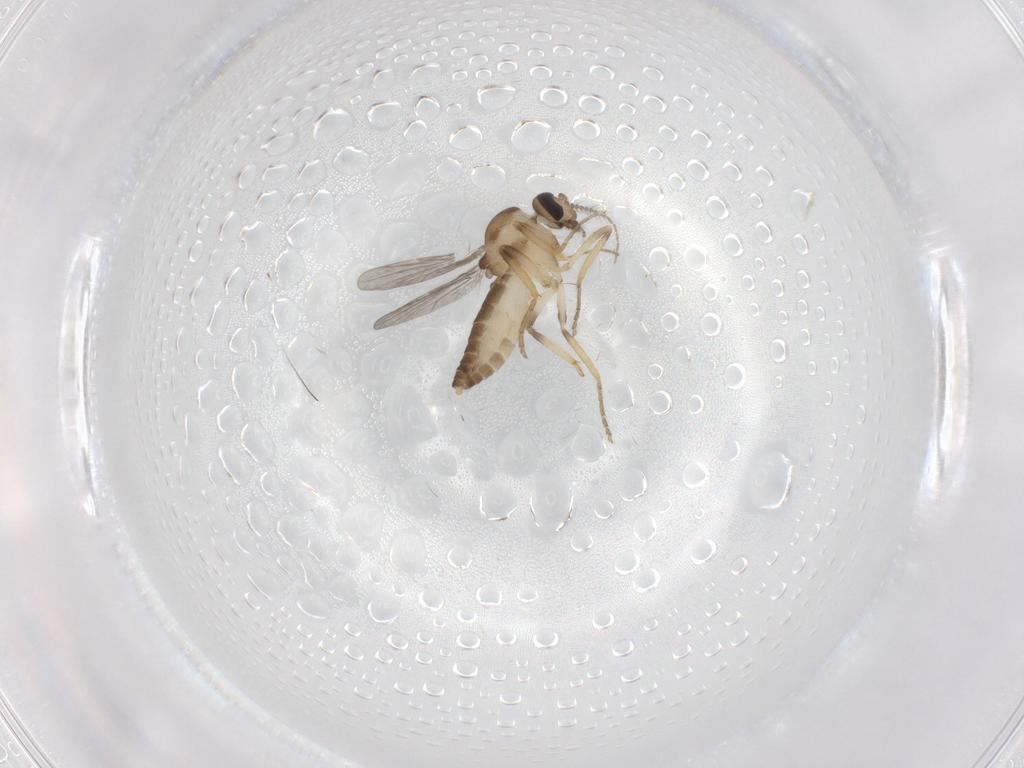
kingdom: Animalia
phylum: Arthropoda
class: Insecta
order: Diptera
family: Ceratopogonidae
